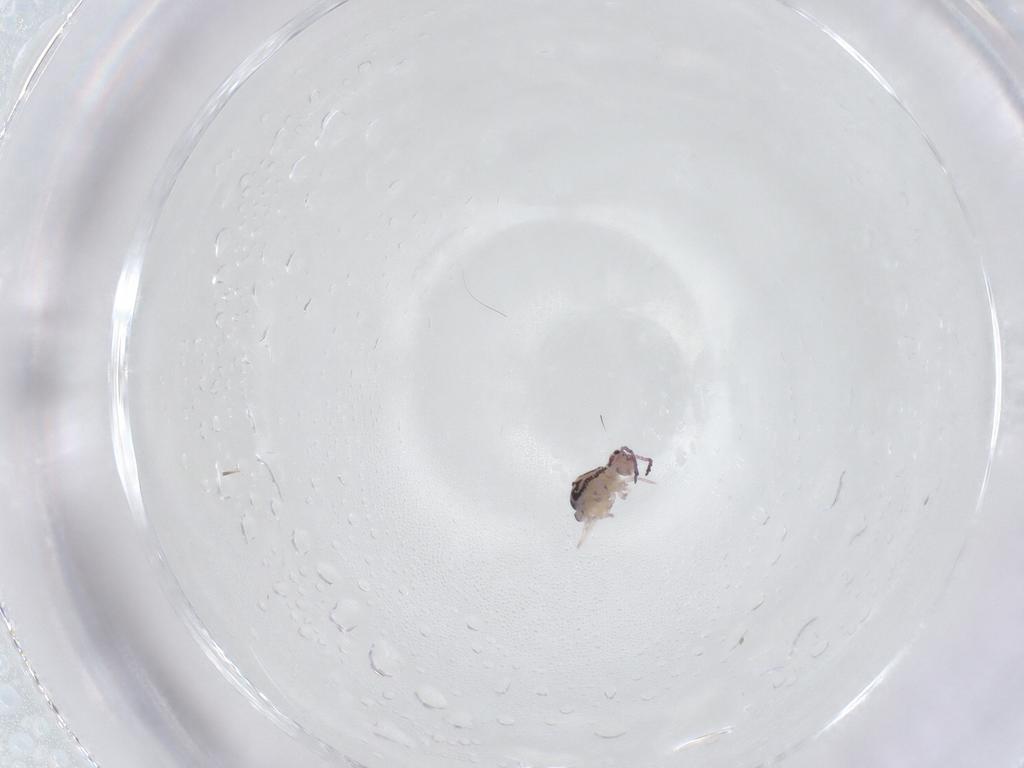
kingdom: Animalia
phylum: Arthropoda
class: Collembola
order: Symphypleona
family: Dicyrtomidae
